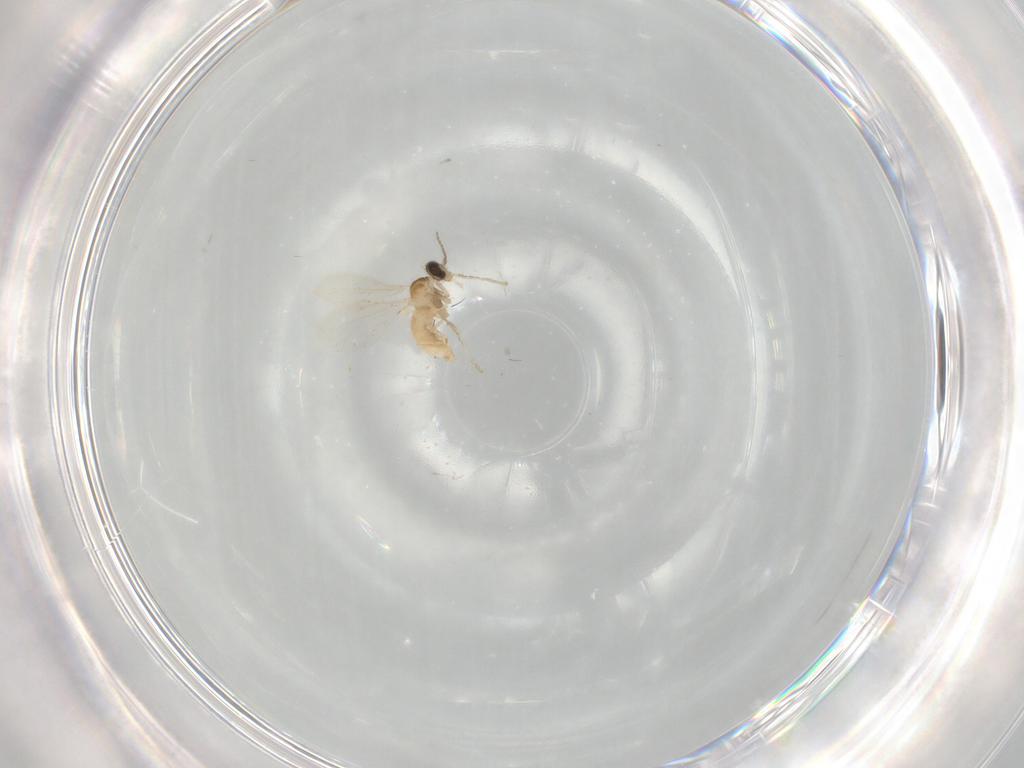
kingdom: Animalia
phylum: Arthropoda
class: Insecta
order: Diptera
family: Cecidomyiidae
